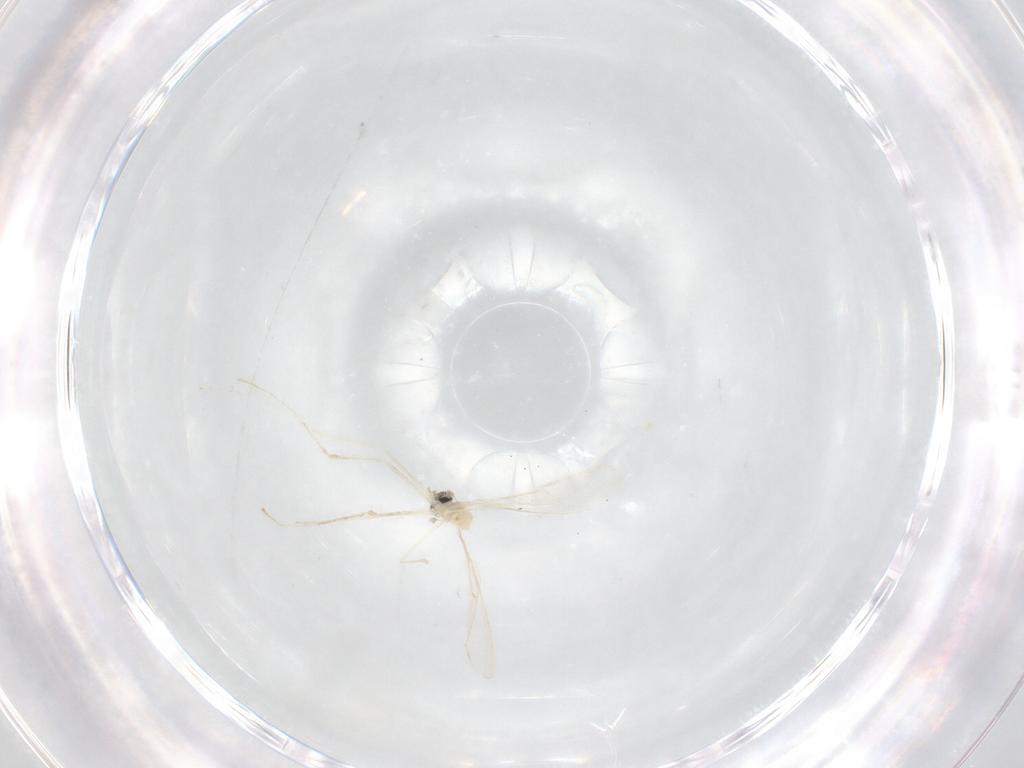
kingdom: Animalia
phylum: Arthropoda
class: Insecta
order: Diptera
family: Cecidomyiidae
